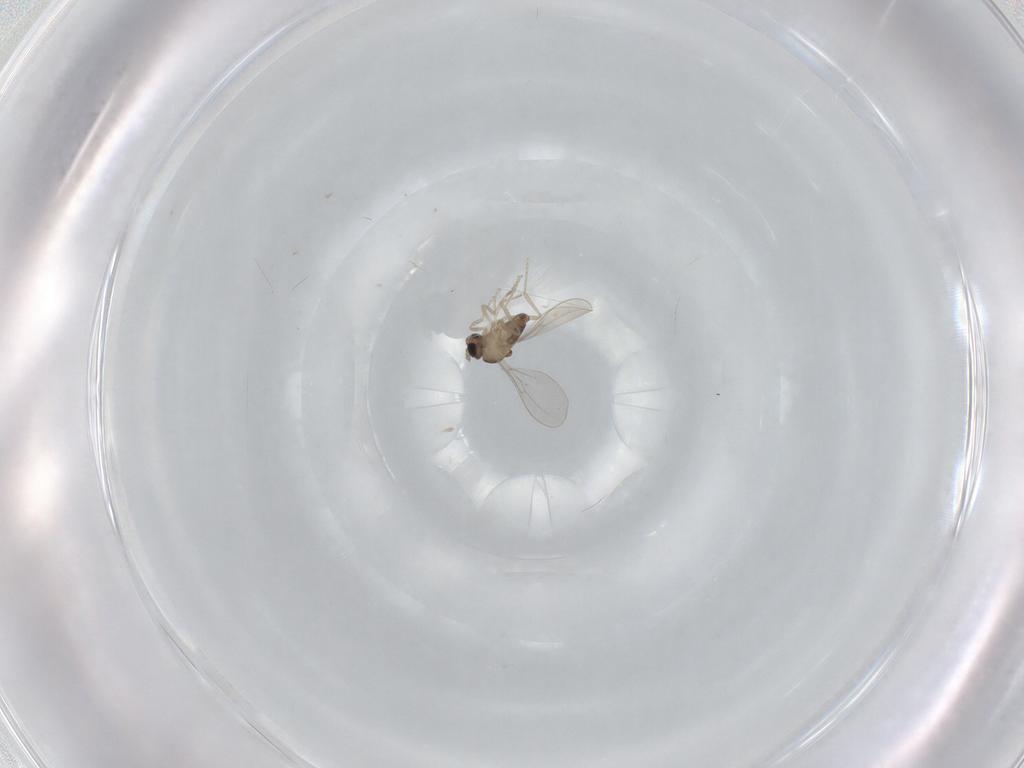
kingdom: Animalia
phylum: Arthropoda
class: Insecta
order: Diptera
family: Cecidomyiidae
